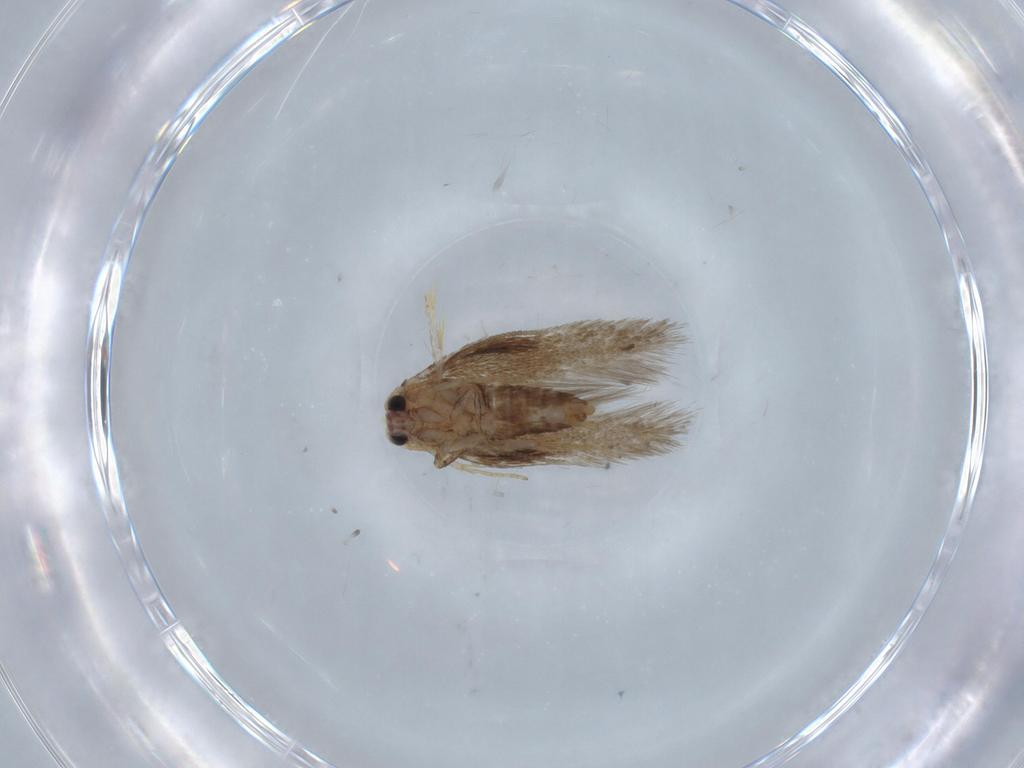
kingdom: Animalia
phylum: Arthropoda
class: Insecta
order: Lepidoptera
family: Nepticulidae
